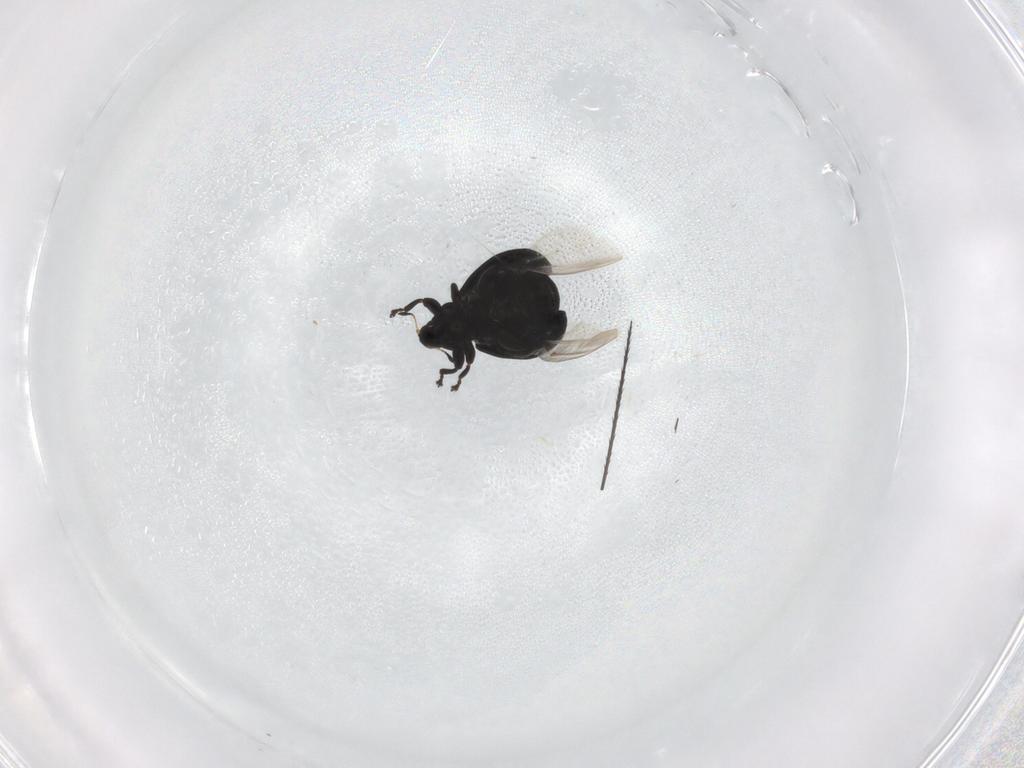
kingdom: Animalia
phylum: Arthropoda
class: Insecta
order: Coleoptera
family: Curculionidae
